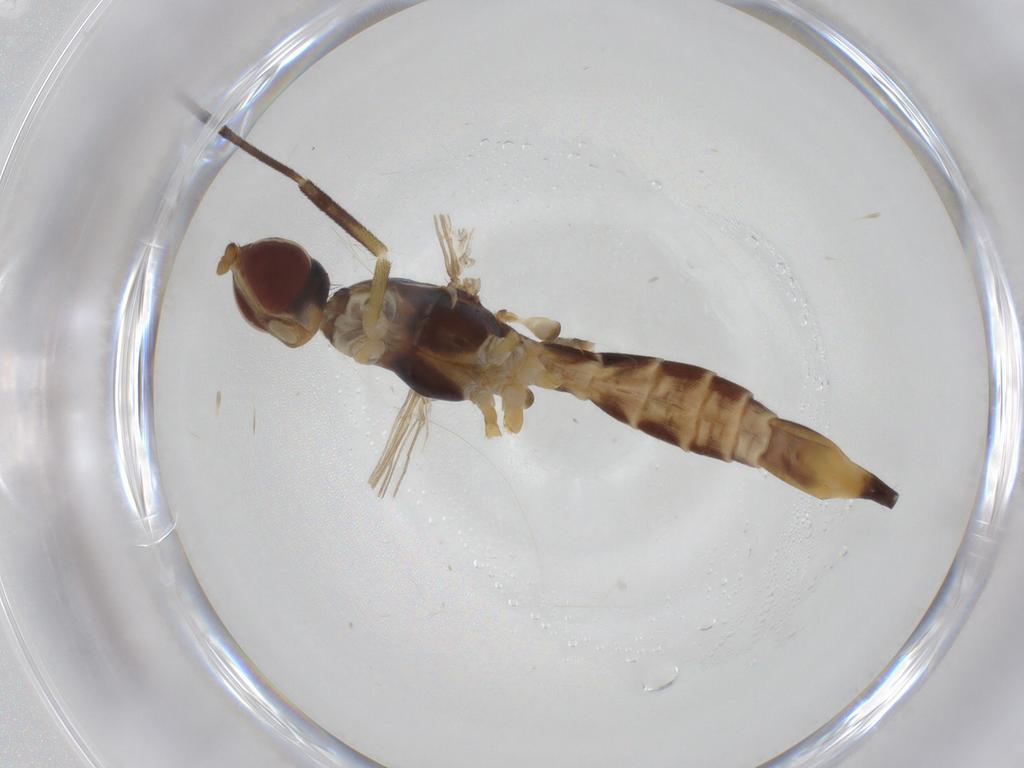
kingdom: Animalia
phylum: Arthropoda
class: Insecta
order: Diptera
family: Micropezidae
